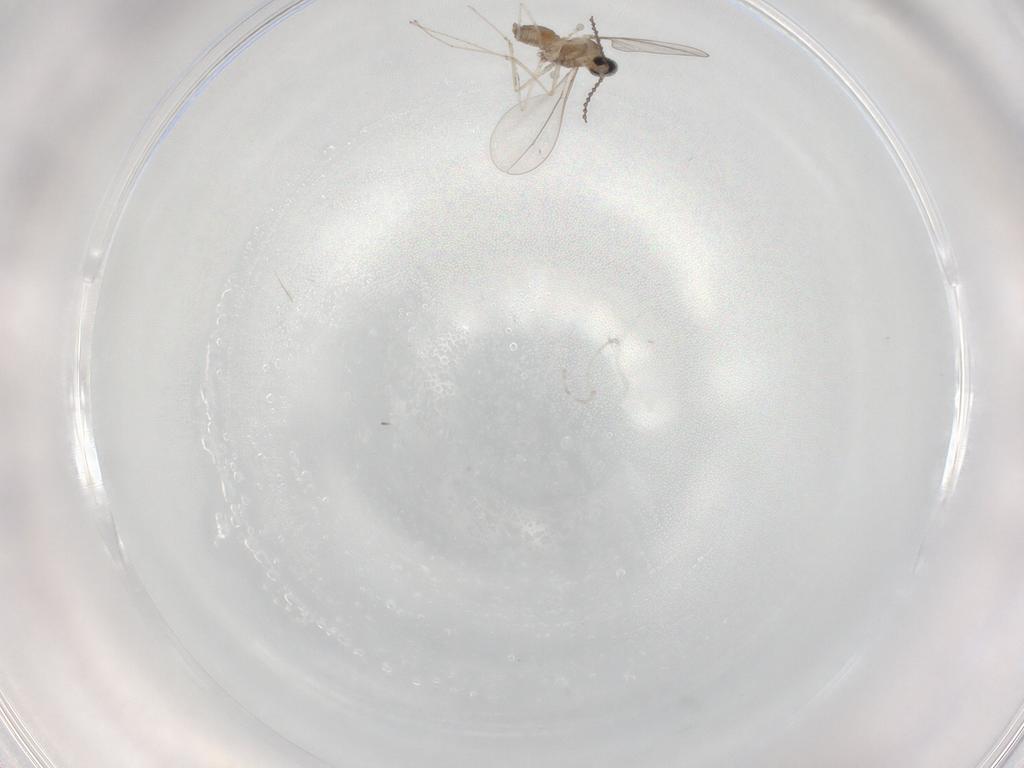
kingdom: Animalia
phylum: Arthropoda
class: Insecta
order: Diptera
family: Cecidomyiidae
